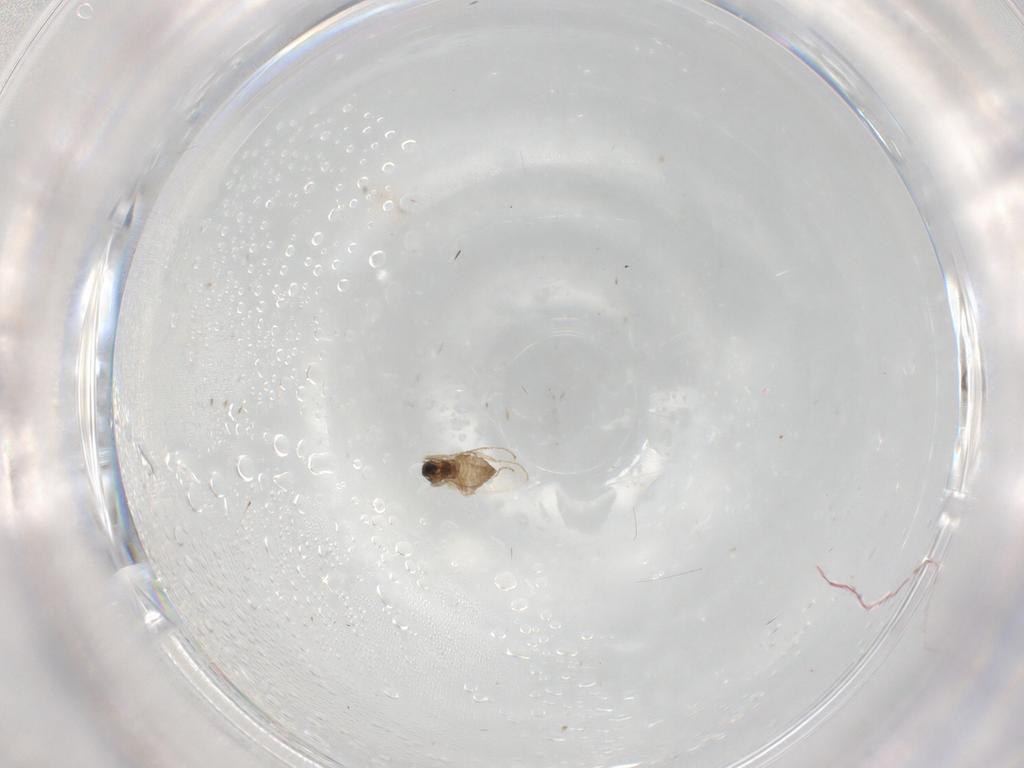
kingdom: Animalia
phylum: Arthropoda
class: Insecta
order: Diptera
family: Cecidomyiidae
